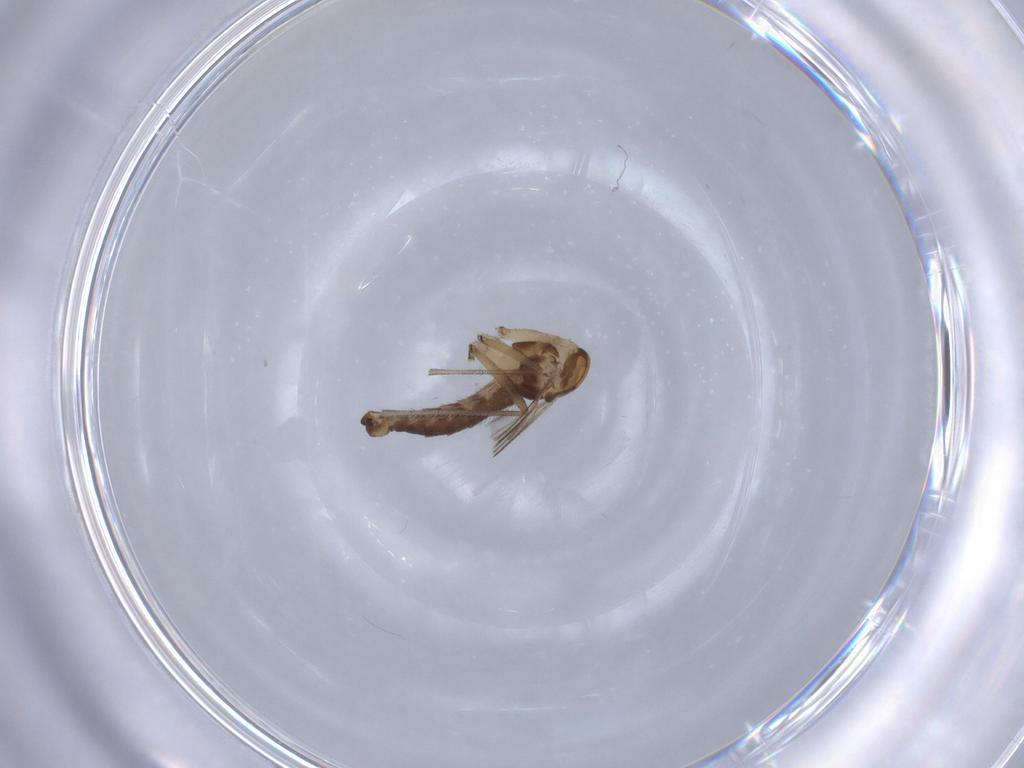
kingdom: Animalia
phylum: Arthropoda
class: Insecta
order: Diptera
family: Sciaridae
